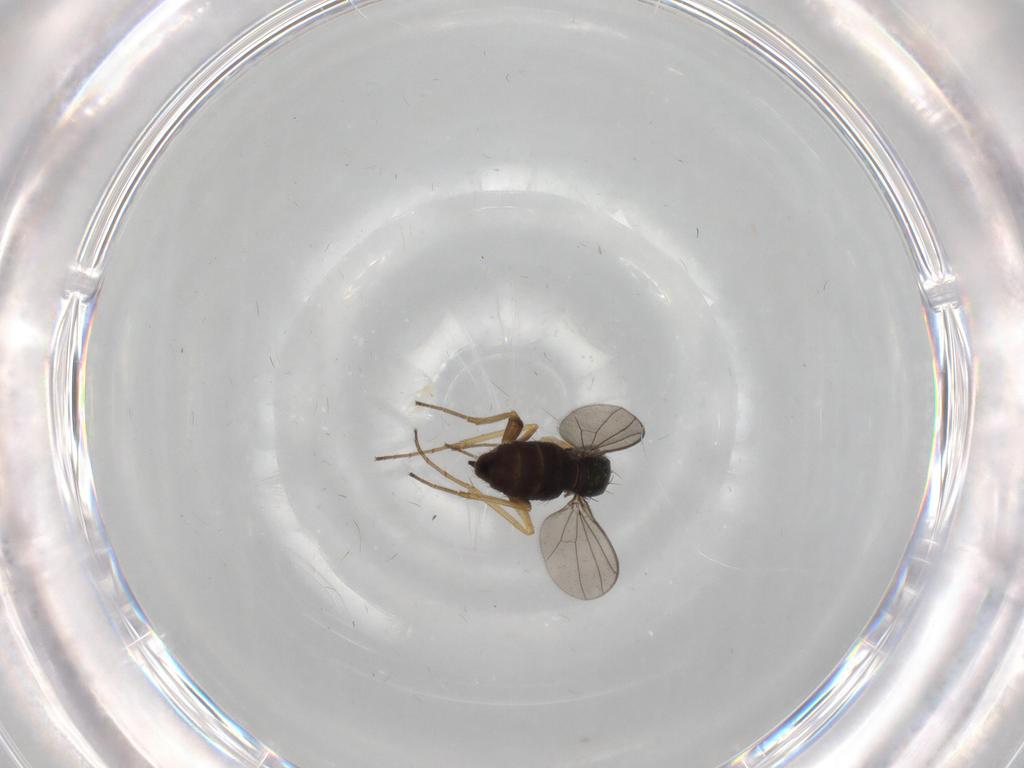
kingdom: Animalia
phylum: Arthropoda
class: Insecta
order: Diptera
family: Dolichopodidae
